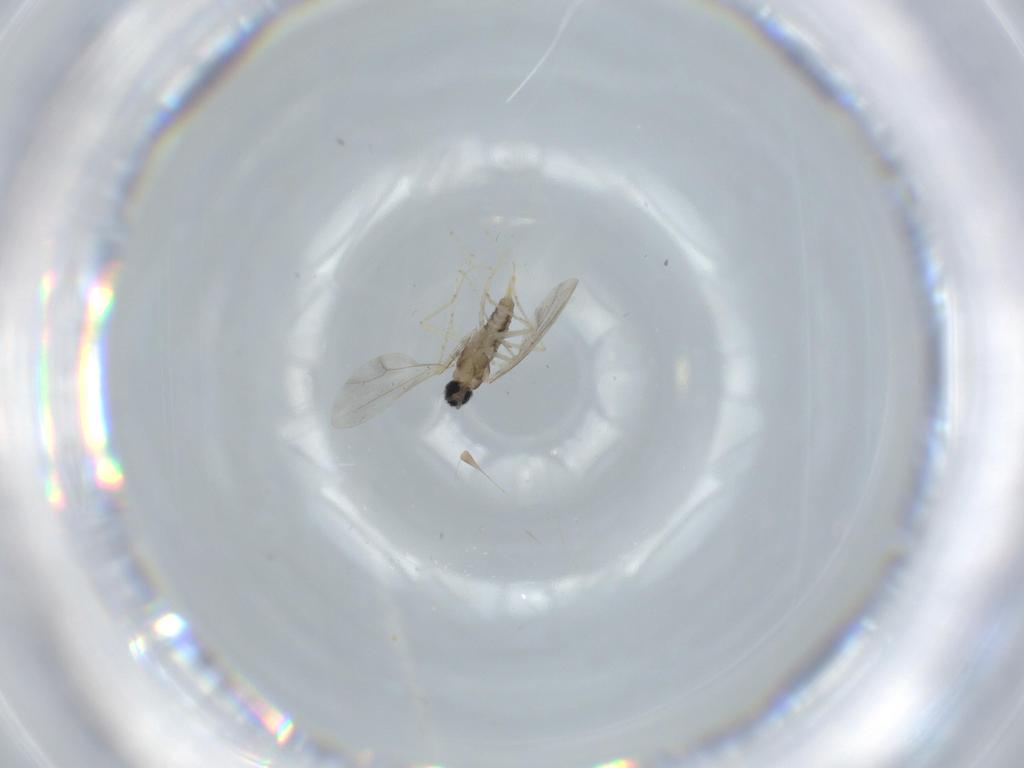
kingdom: Animalia
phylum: Arthropoda
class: Insecta
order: Diptera
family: Cecidomyiidae
